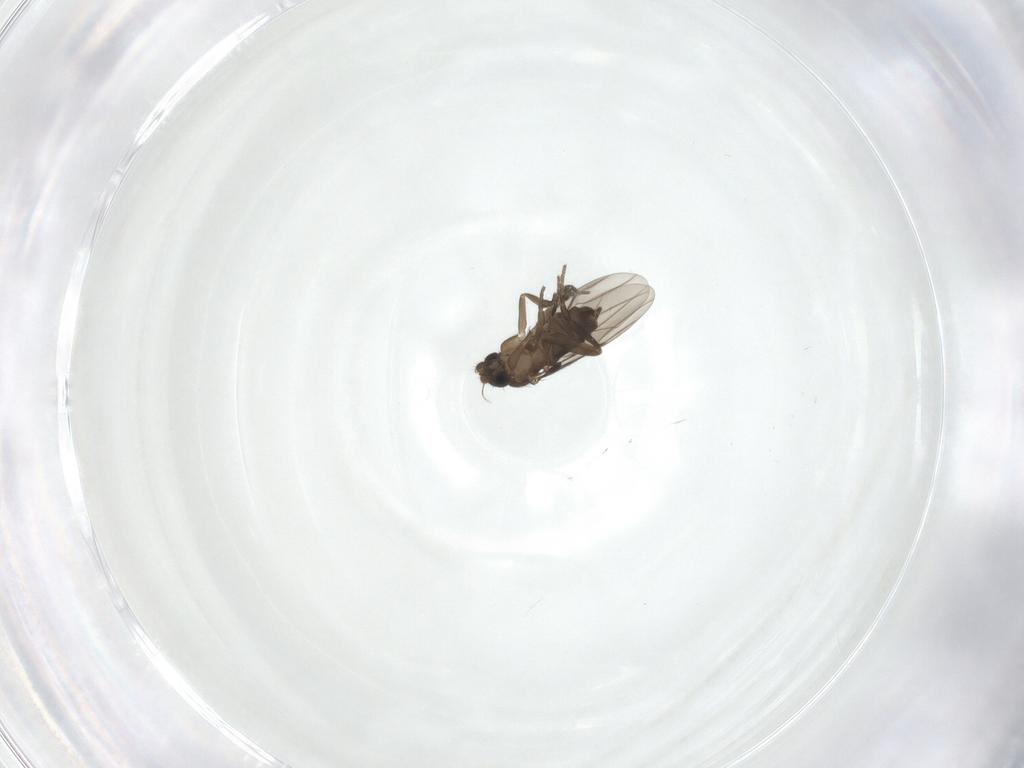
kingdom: Animalia
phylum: Arthropoda
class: Insecta
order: Diptera
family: Phoridae
